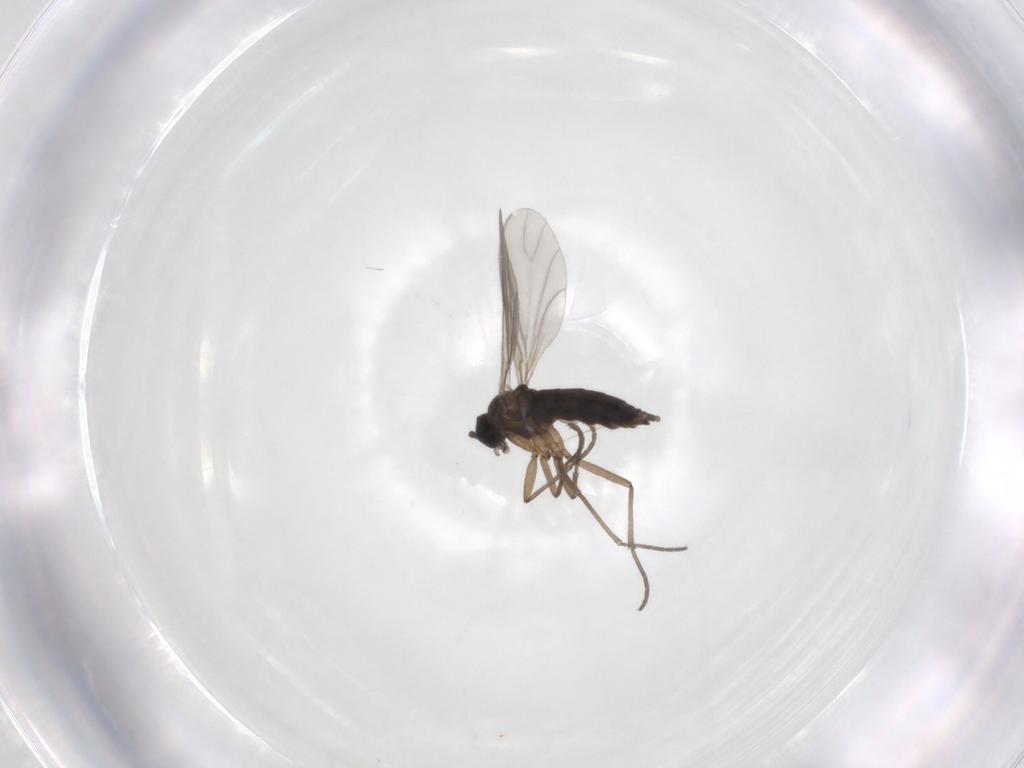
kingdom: Animalia
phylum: Arthropoda
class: Insecta
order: Diptera
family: Sciaridae
